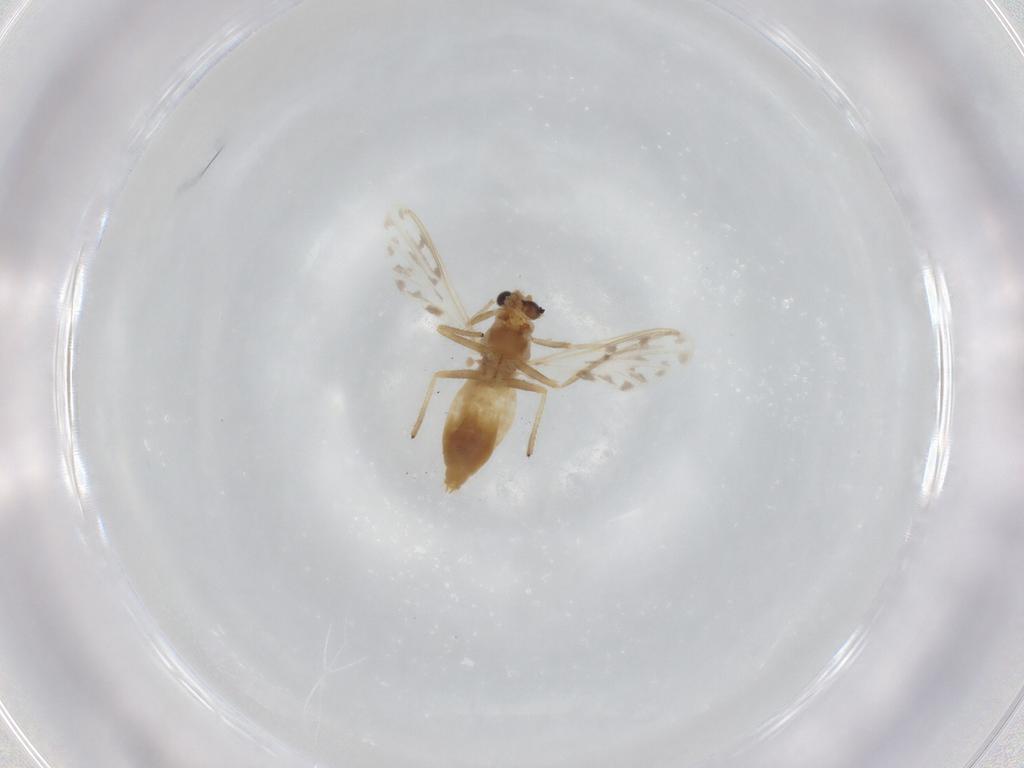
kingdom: Animalia
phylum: Arthropoda
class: Insecta
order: Diptera
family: Chironomidae
